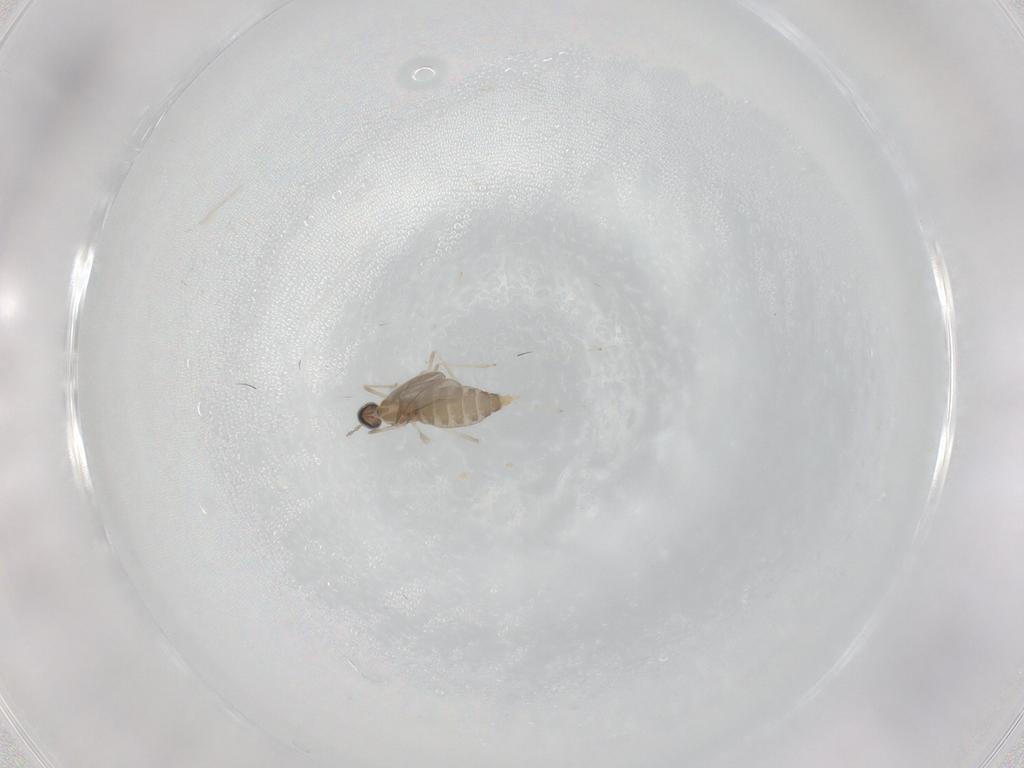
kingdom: Animalia
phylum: Arthropoda
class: Insecta
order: Diptera
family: Cecidomyiidae
